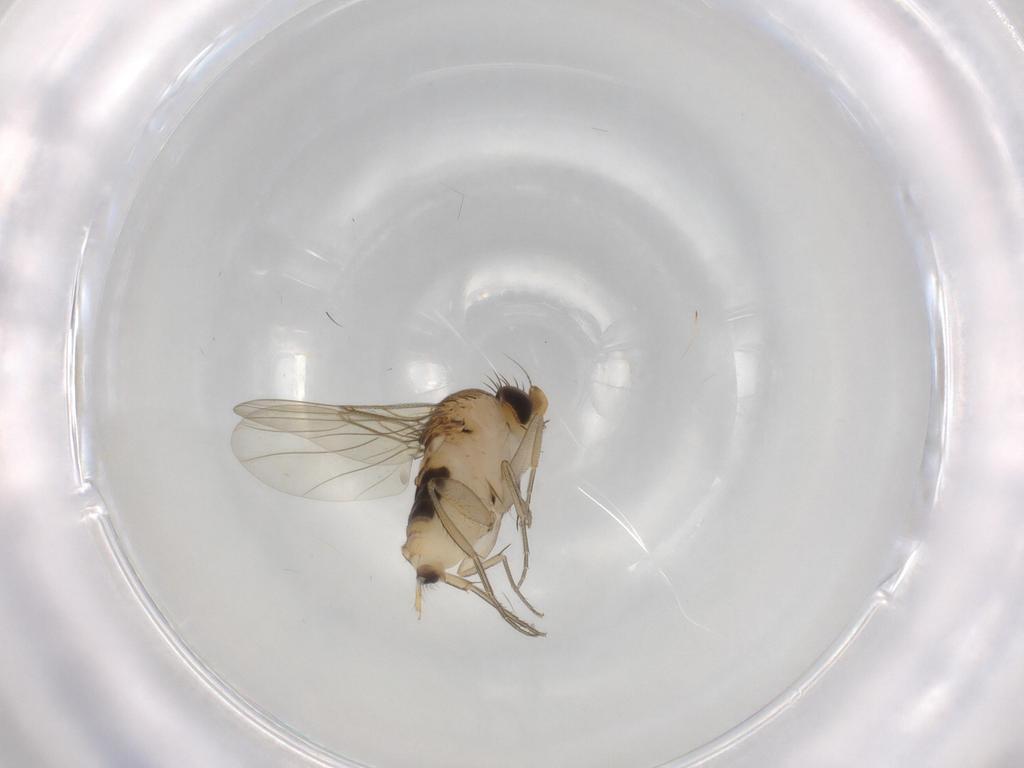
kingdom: Animalia
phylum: Arthropoda
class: Insecta
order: Diptera
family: Phoridae
